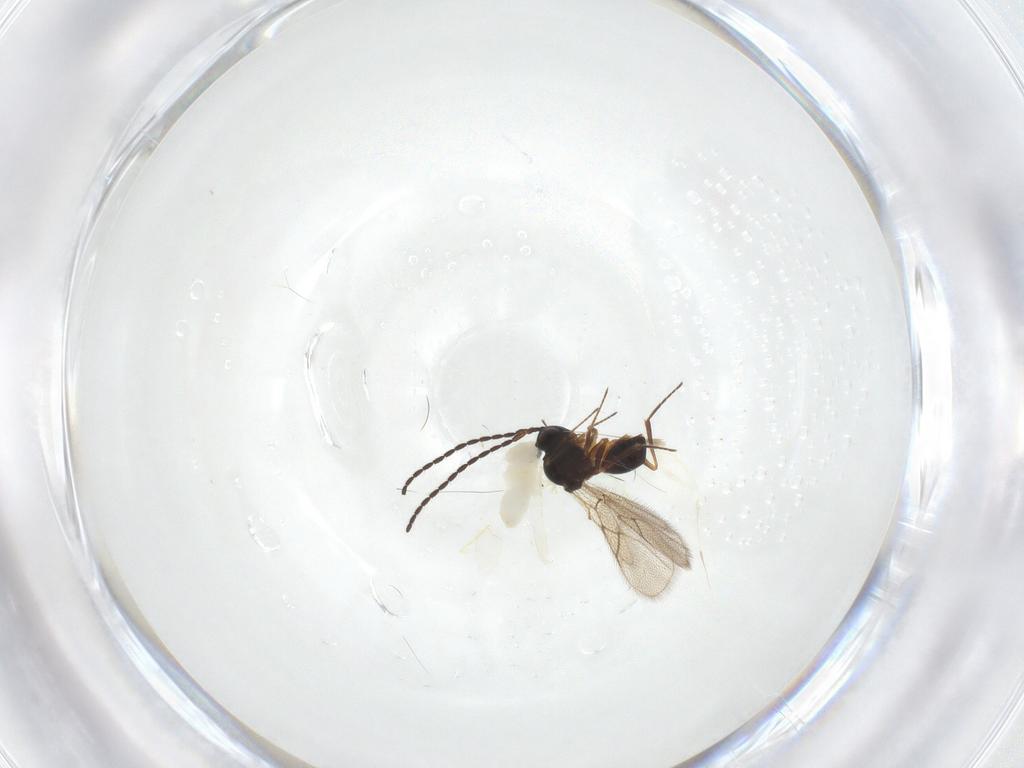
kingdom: Animalia
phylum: Arthropoda
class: Insecta
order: Hymenoptera
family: Figitidae
